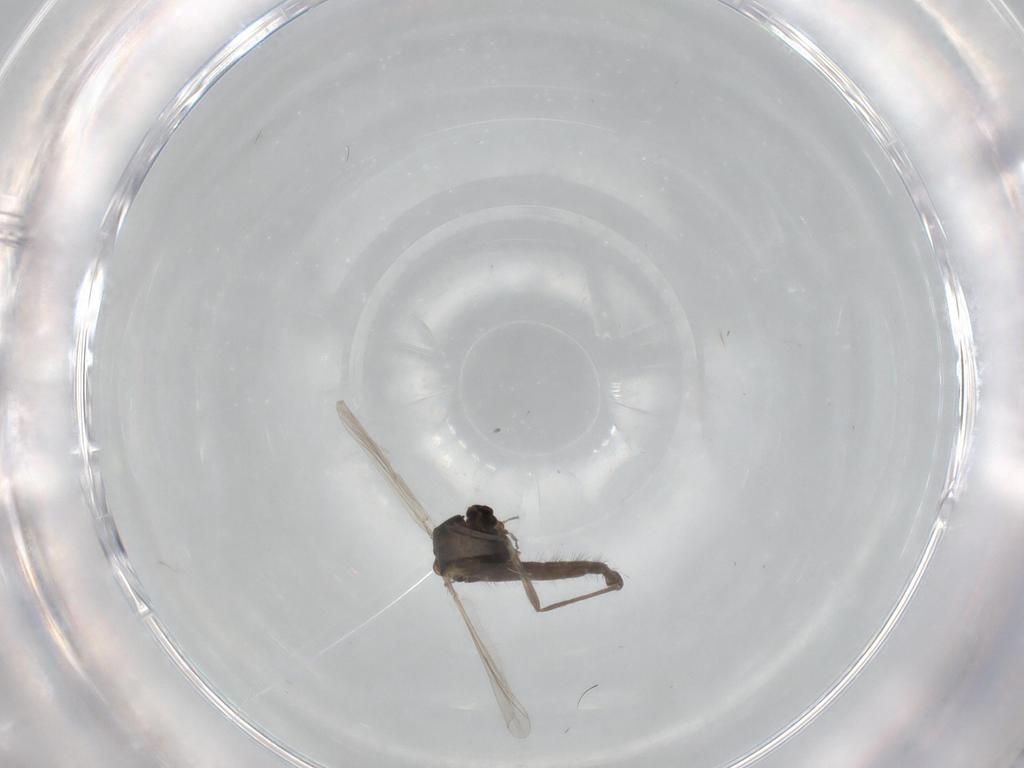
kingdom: Animalia
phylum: Arthropoda
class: Insecta
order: Diptera
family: Chironomidae
